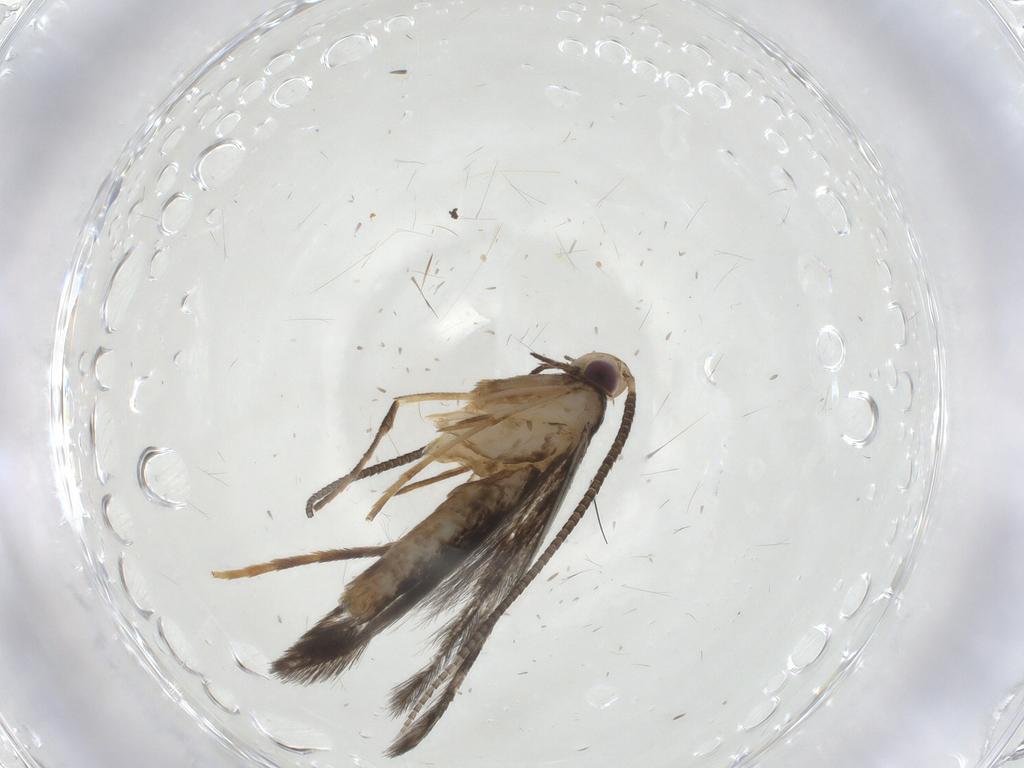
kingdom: Animalia
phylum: Arthropoda
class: Insecta
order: Lepidoptera
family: Gracillariidae
